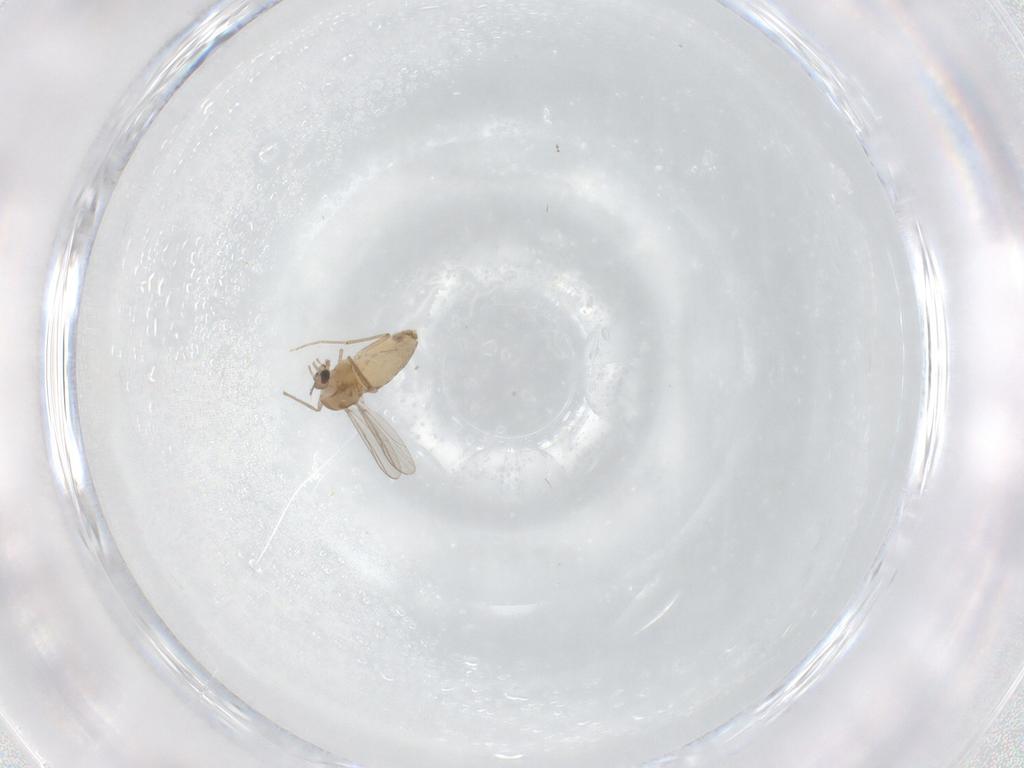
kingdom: Animalia
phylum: Arthropoda
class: Insecta
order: Diptera
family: Chironomidae
